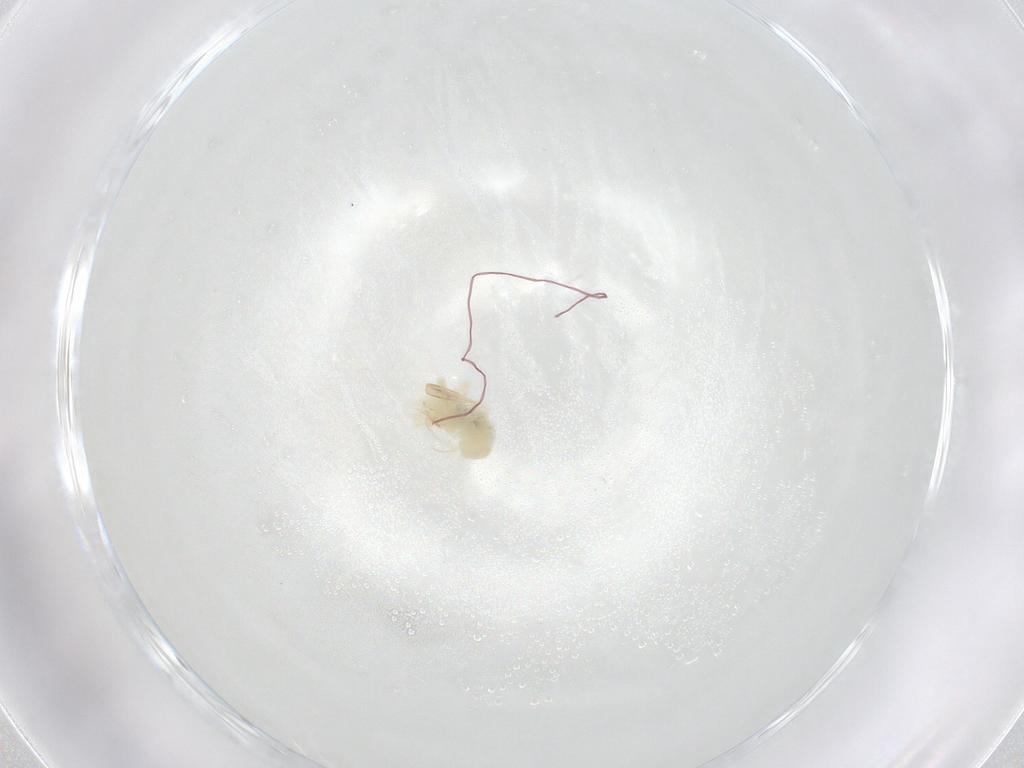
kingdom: Animalia
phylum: Arthropoda
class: Arachnida
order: Trombidiformes
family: Anystidae
